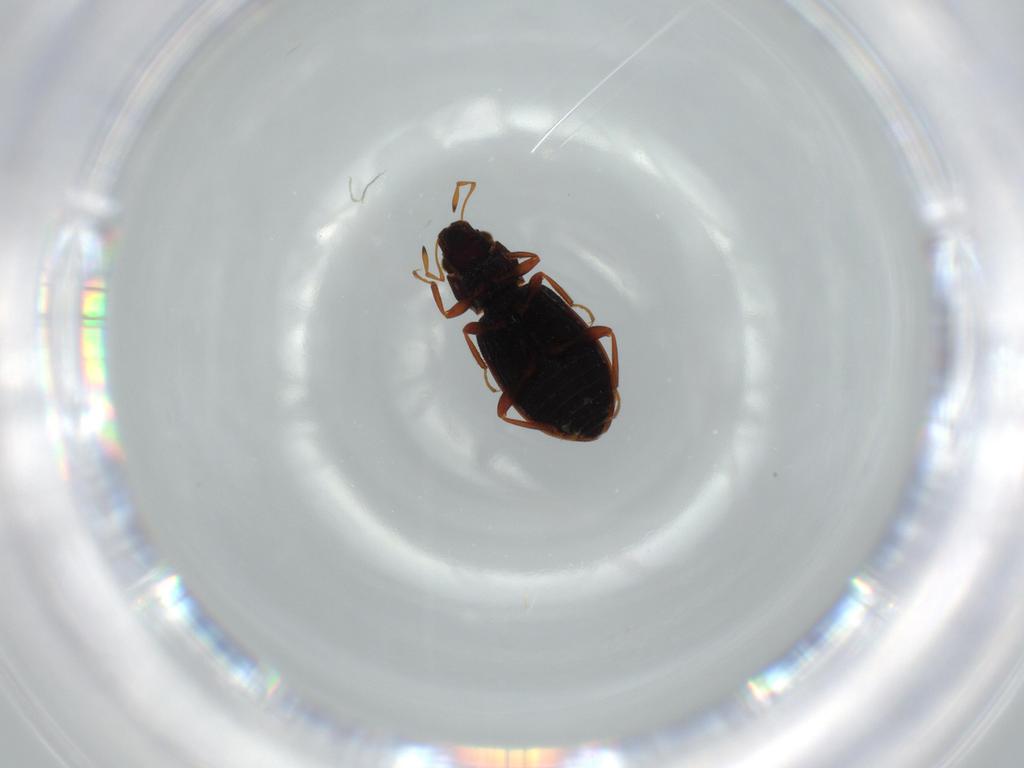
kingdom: Animalia
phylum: Arthropoda
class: Insecta
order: Coleoptera
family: Hydraenidae
